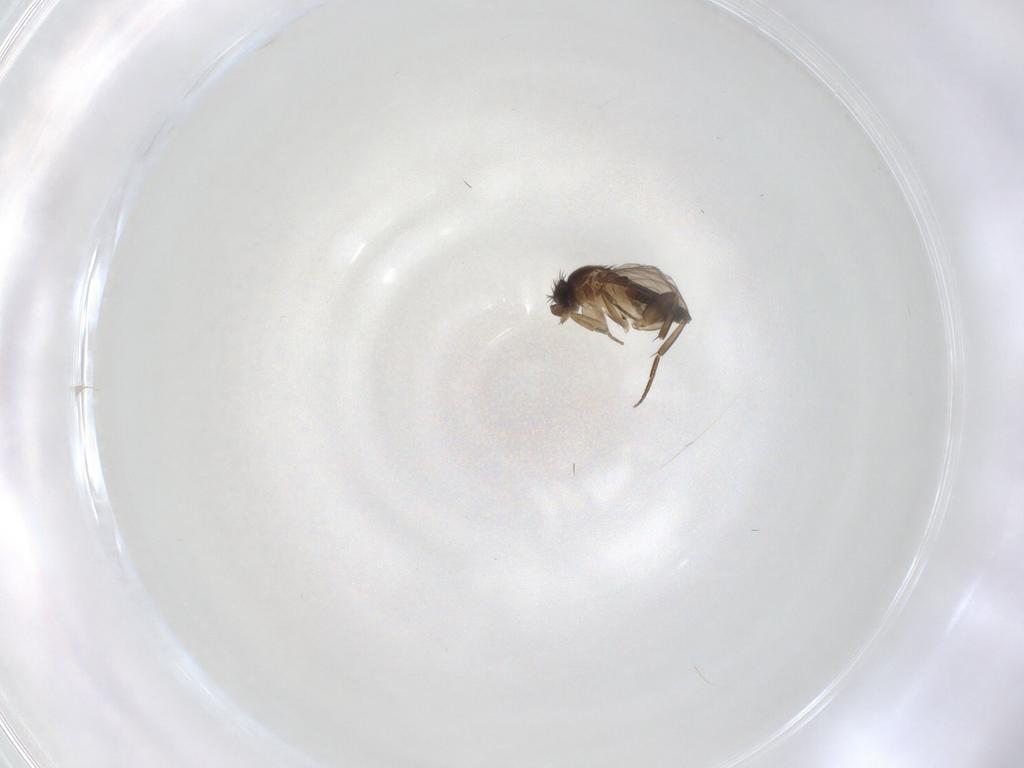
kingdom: Animalia
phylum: Arthropoda
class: Insecta
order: Diptera
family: Phoridae
